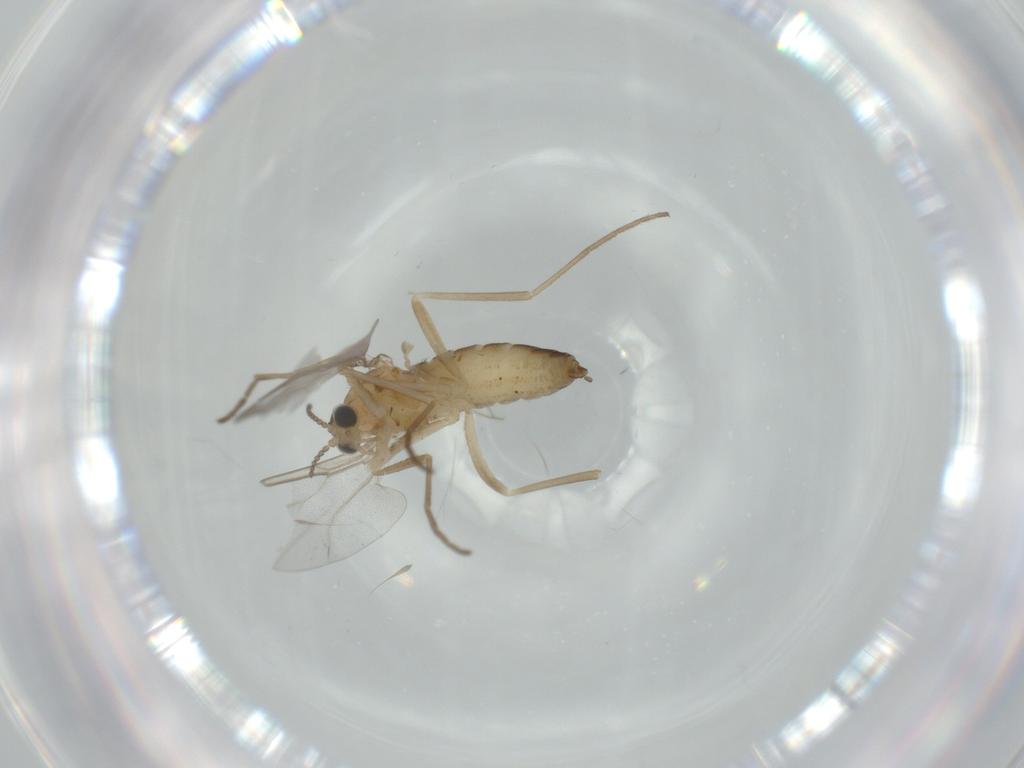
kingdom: Animalia
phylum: Arthropoda
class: Insecta
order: Diptera
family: Cecidomyiidae
